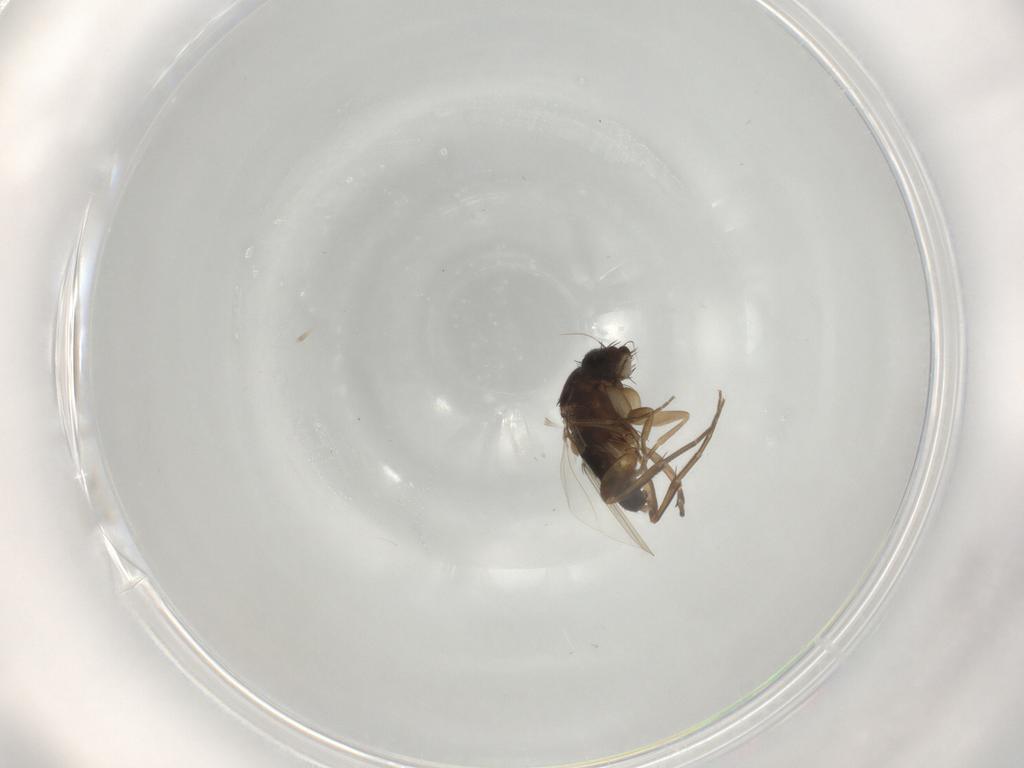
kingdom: Animalia
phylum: Arthropoda
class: Insecta
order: Diptera
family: Phoridae
